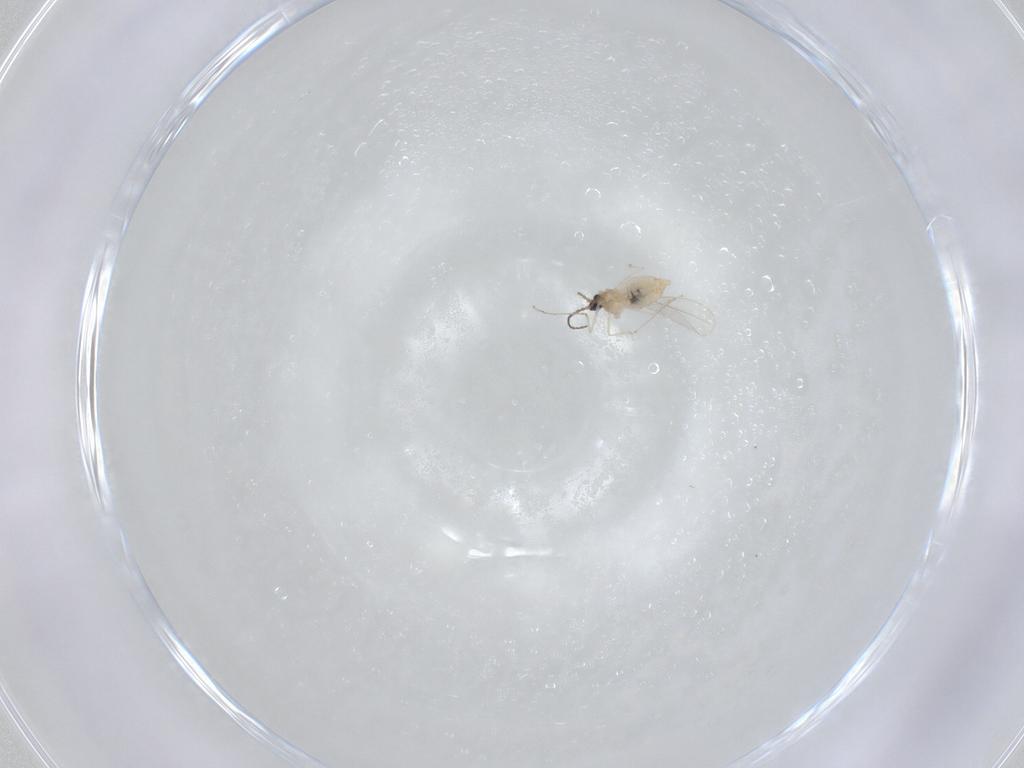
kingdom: Animalia
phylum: Arthropoda
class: Insecta
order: Diptera
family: Cecidomyiidae
